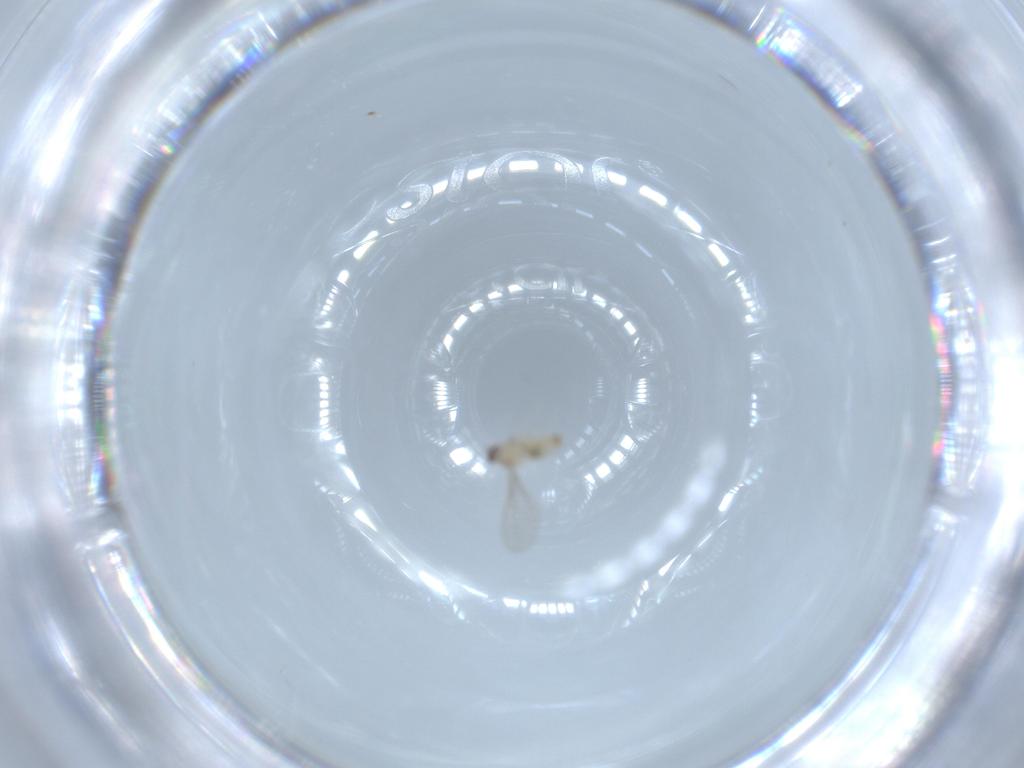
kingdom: Animalia
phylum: Arthropoda
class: Insecta
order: Diptera
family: Cecidomyiidae
